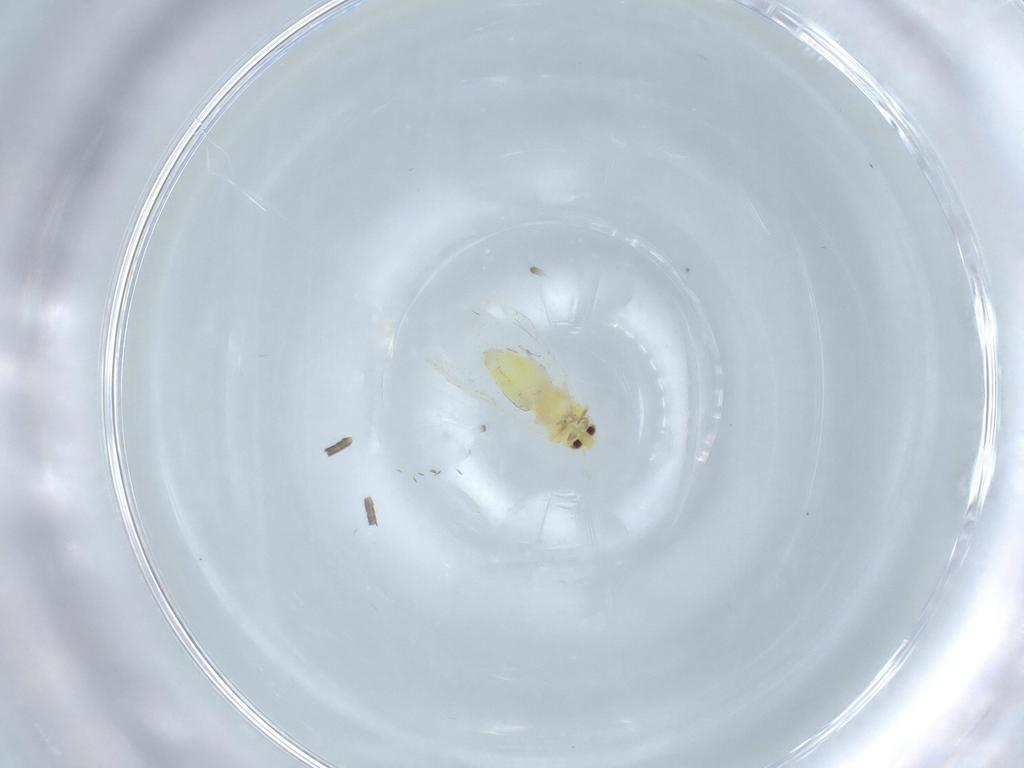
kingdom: Animalia
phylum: Arthropoda
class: Insecta
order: Hemiptera
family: Aleyrodidae
